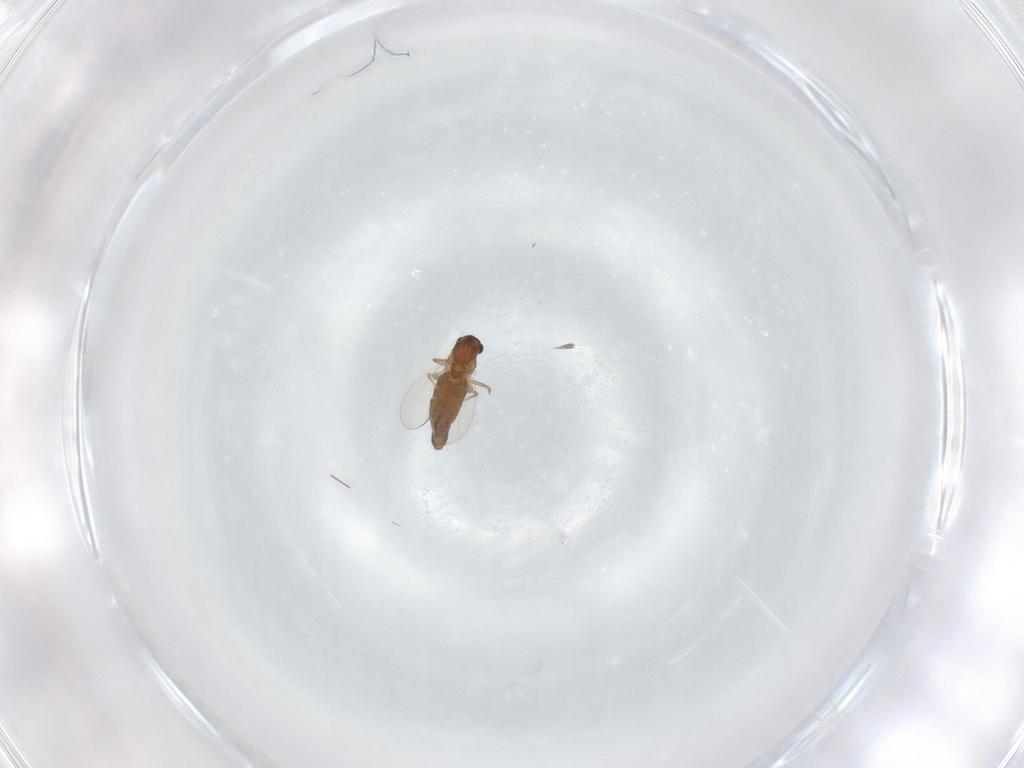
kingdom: Animalia
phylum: Arthropoda
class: Insecta
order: Diptera
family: Chironomidae
